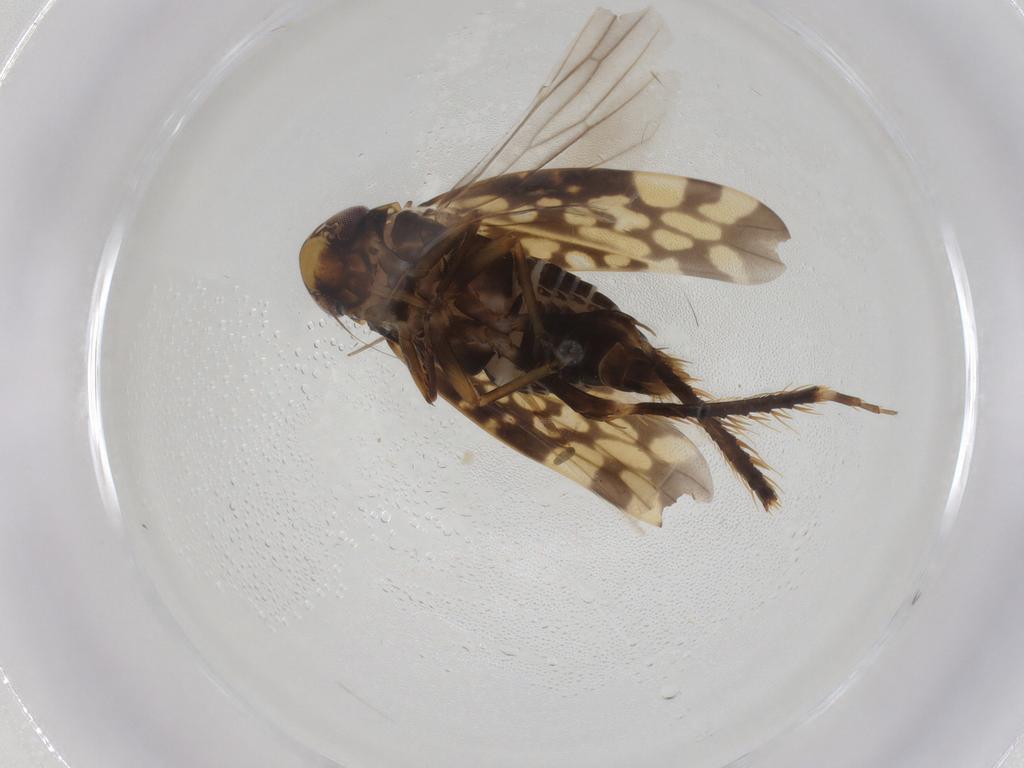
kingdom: Animalia
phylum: Arthropoda
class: Insecta
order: Hemiptera
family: Cicadellidae
